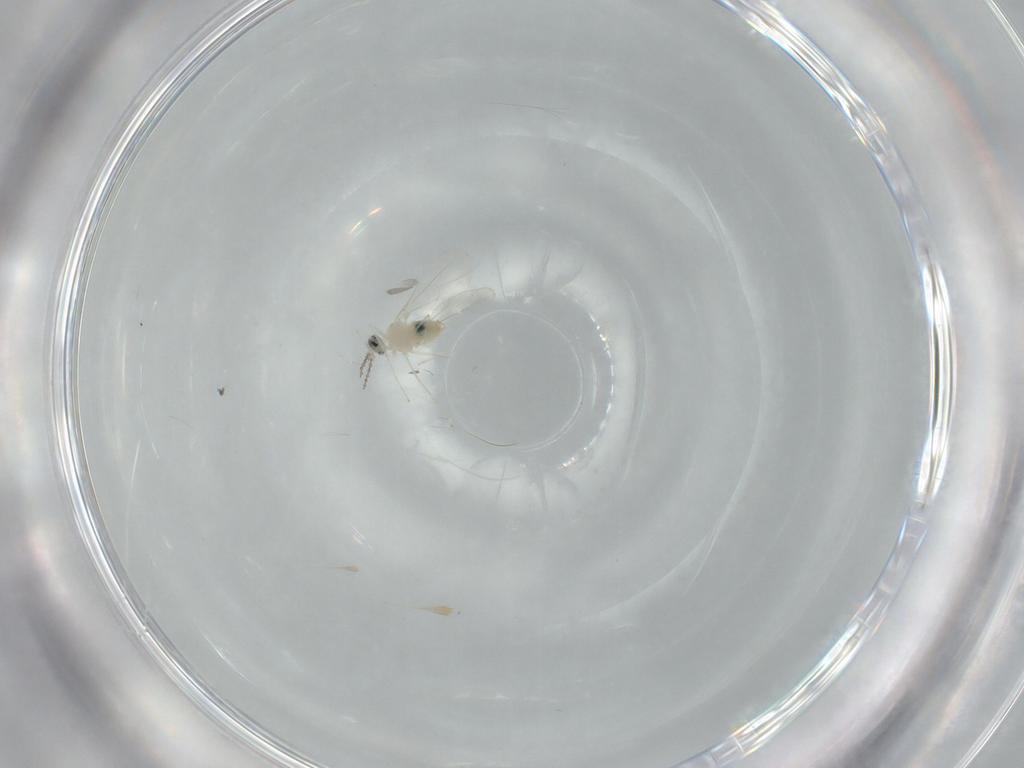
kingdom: Animalia
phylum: Arthropoda
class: Insecta
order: Diptera
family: Cecidomyiidae
